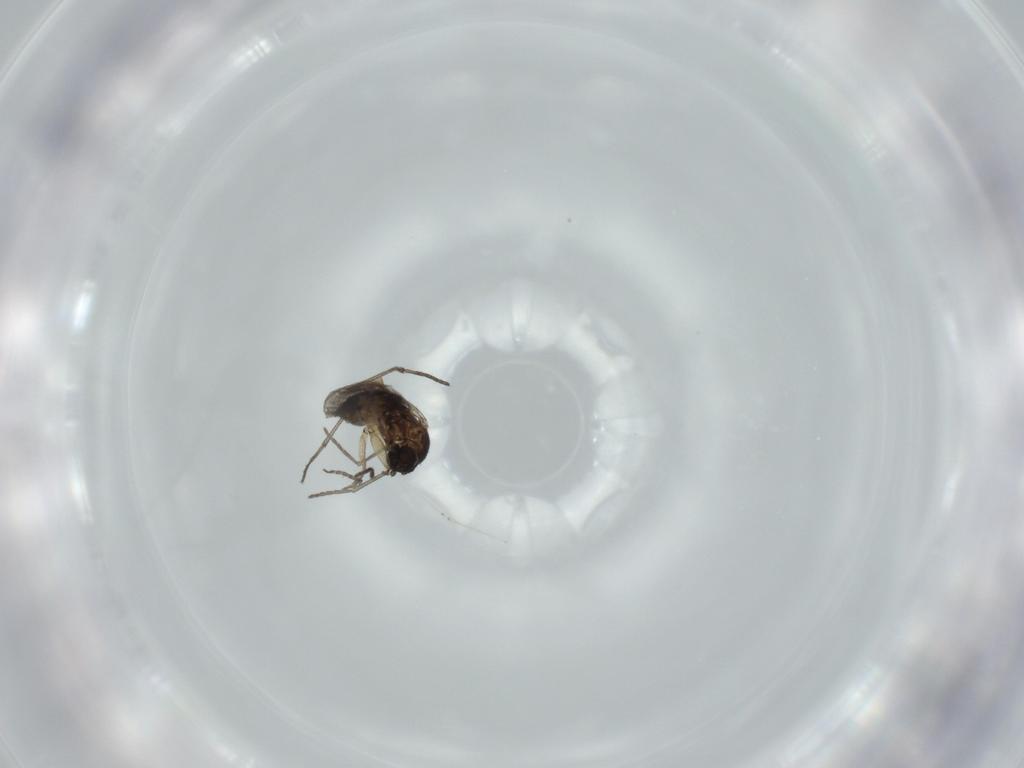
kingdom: Animalia
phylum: Arthropoda
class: Insecta
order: Diptera
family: Sciaridae
